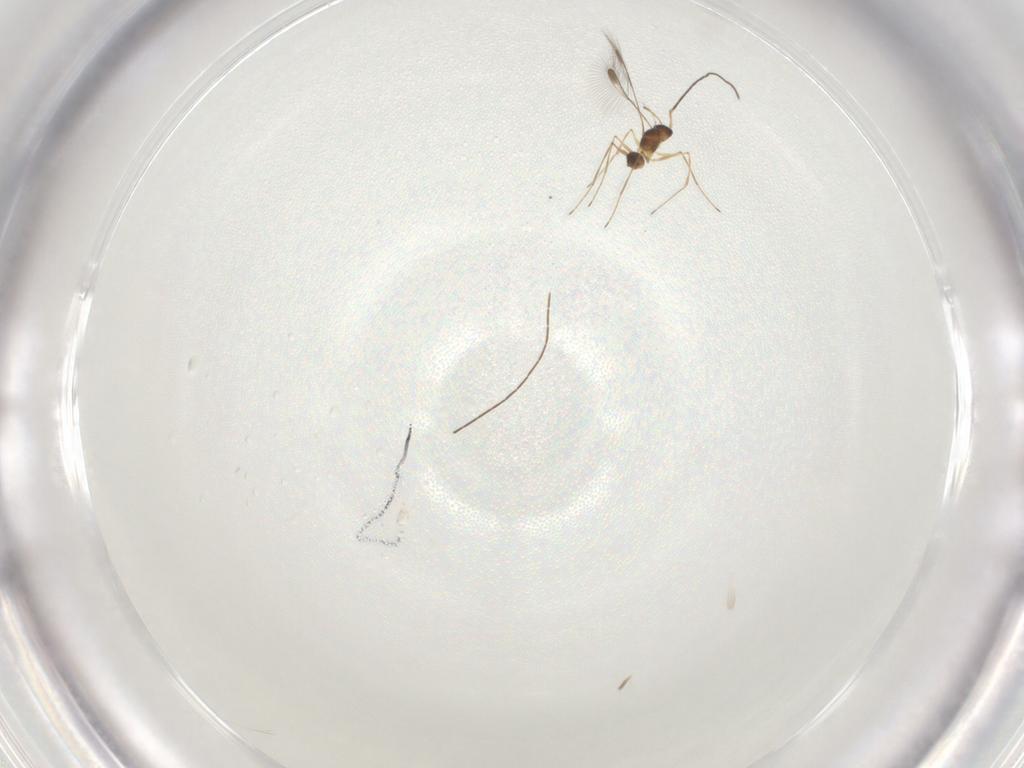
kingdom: Animalia
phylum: Arthropoda
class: Insecta
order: Hymenoptera
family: Mymaridae
